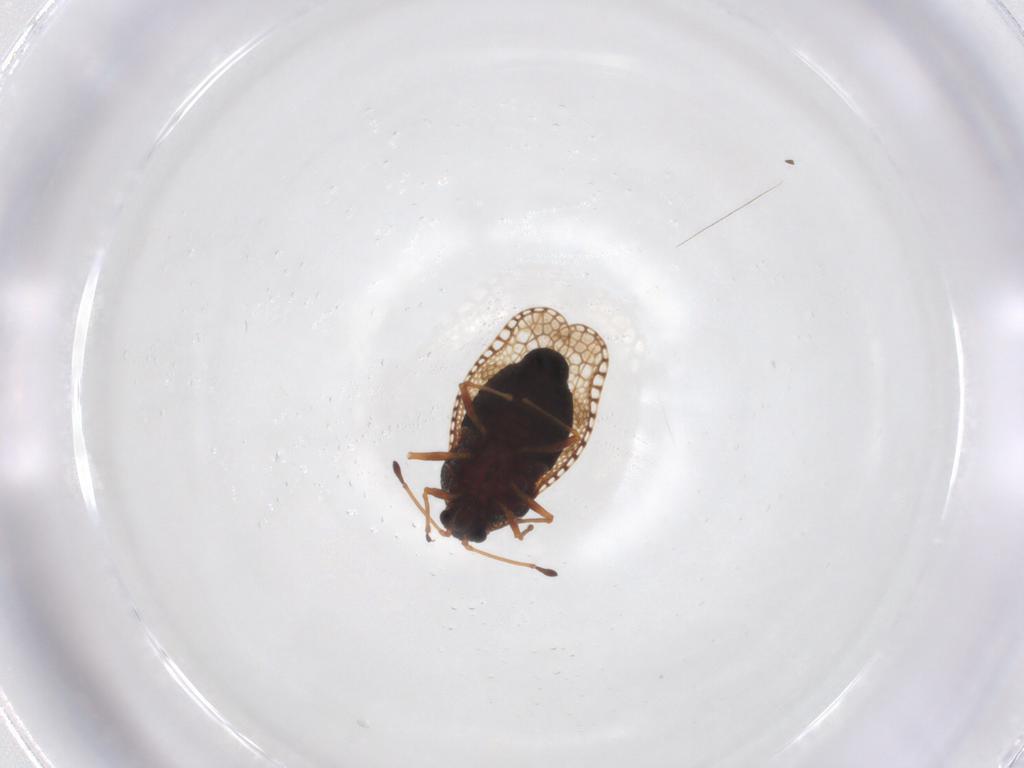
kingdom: Animalia
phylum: Arthropoda
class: Insecta
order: Hemiptera
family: Tingidae
